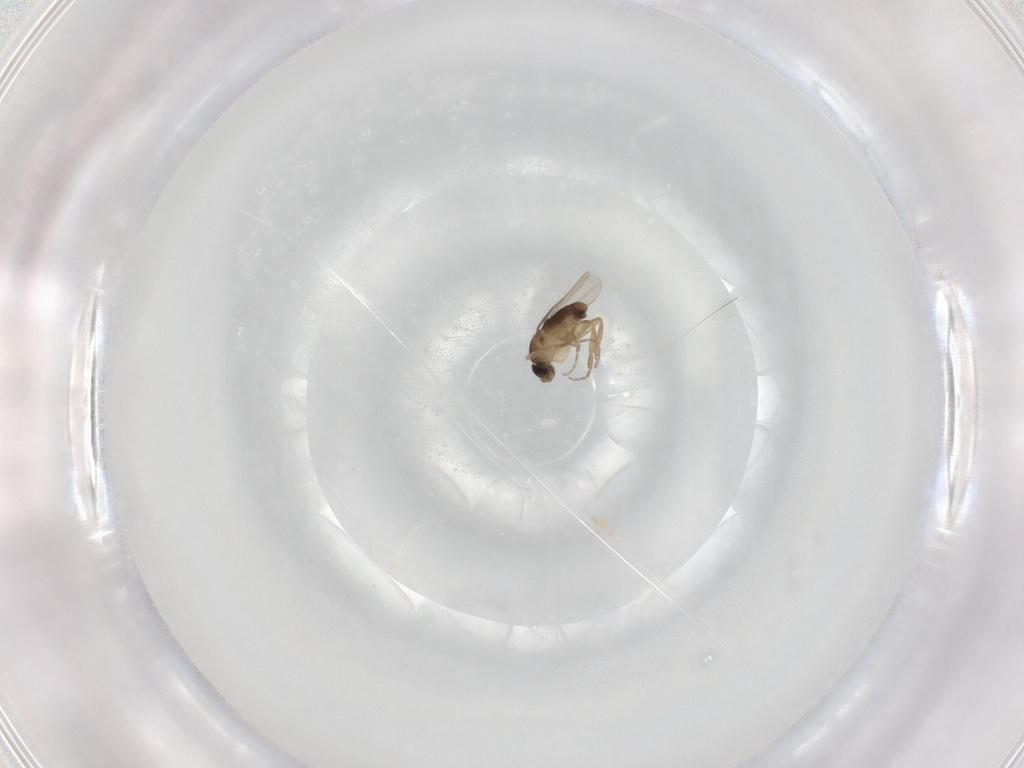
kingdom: Animalia
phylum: Arthropoda
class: Insecta
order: Diptera
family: Phoridae
